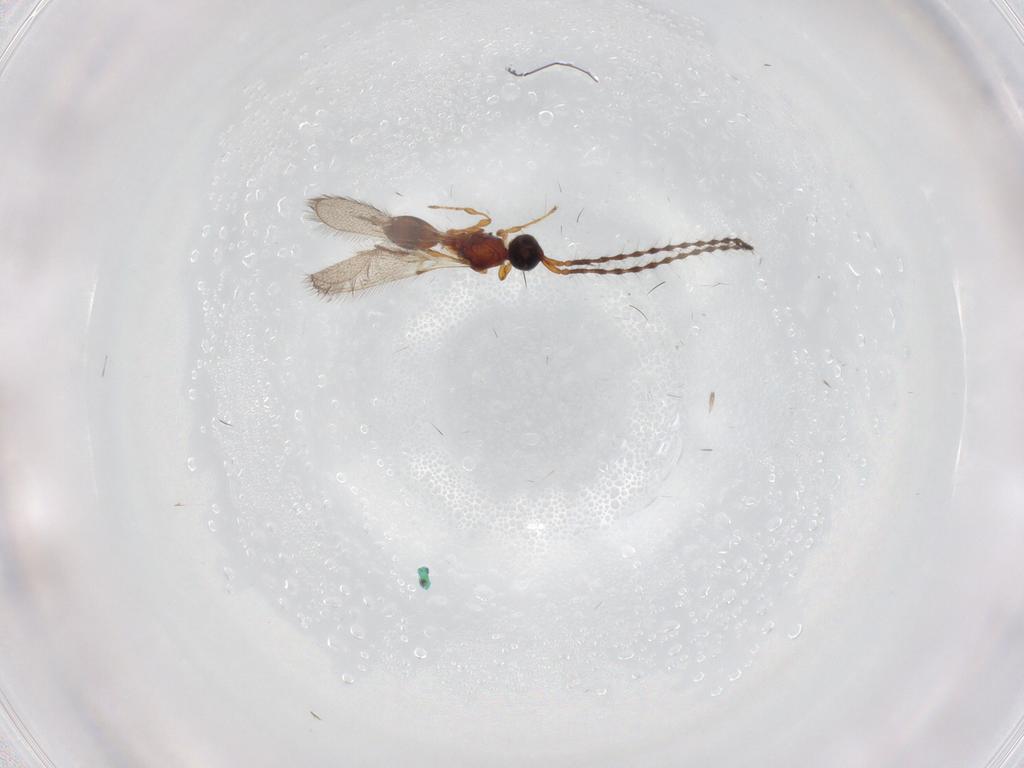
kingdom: Animalia
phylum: Arthropoda
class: Insecta
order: Hymenoptera
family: Diapriidae
